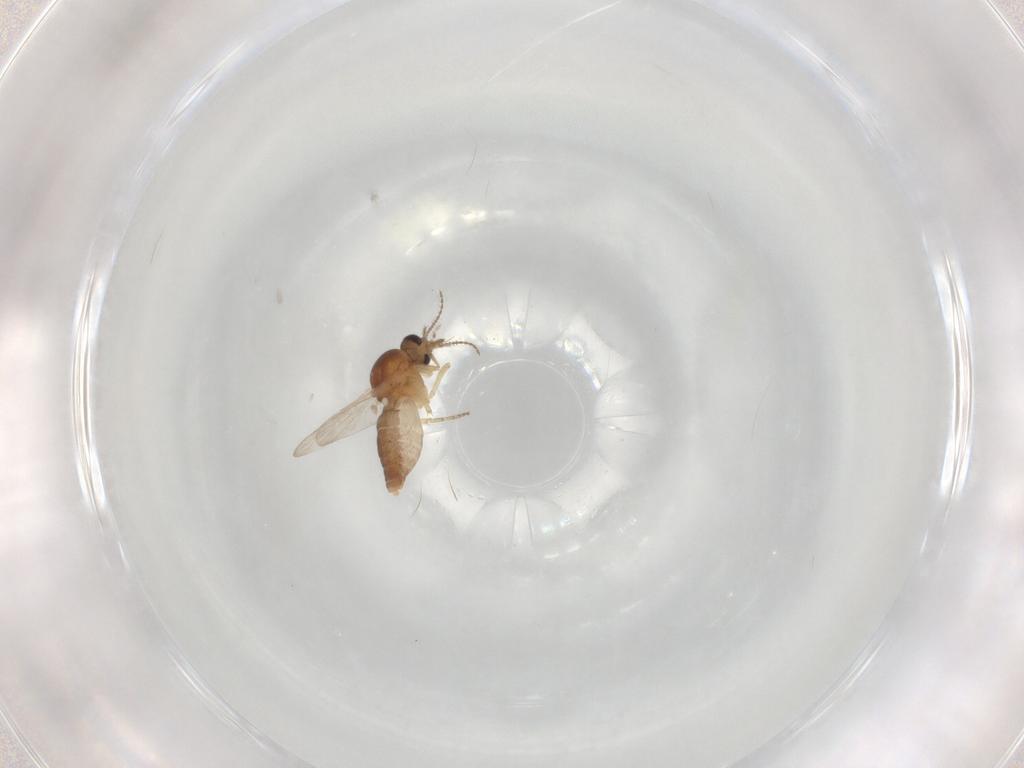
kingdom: Animalia
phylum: Arthropoda
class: Insecta
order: Diptera
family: Ceratopogonidae
